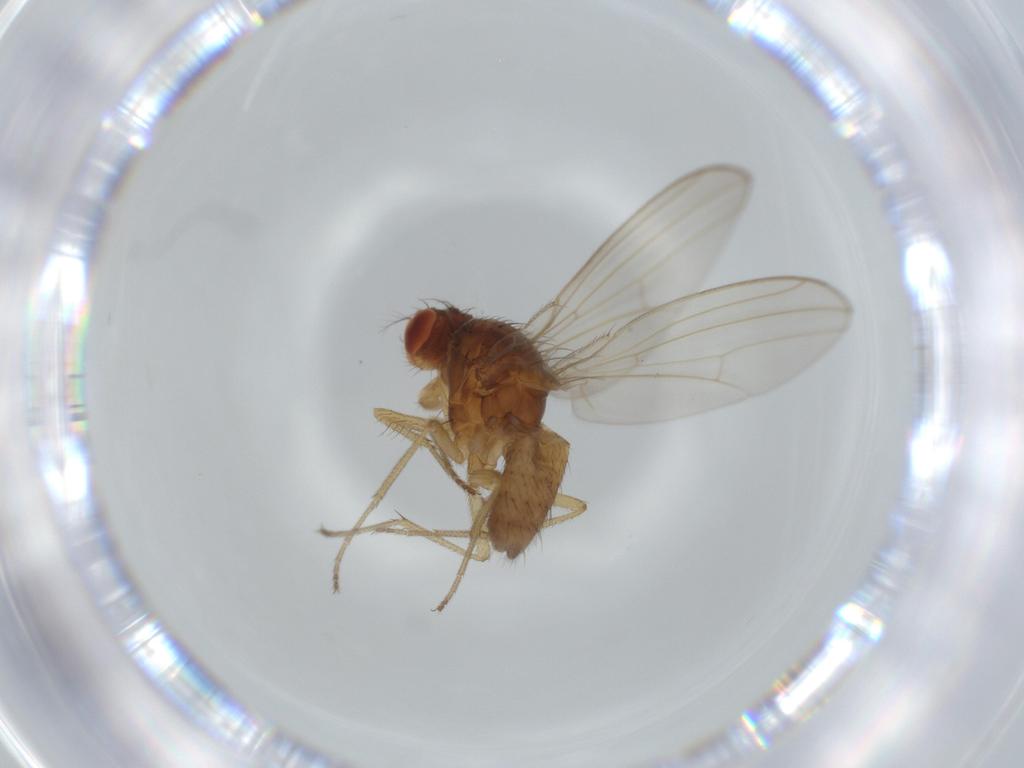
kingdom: Animalia
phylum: Arthropoda
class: Insecta
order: Diptera
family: Drosophilidae
